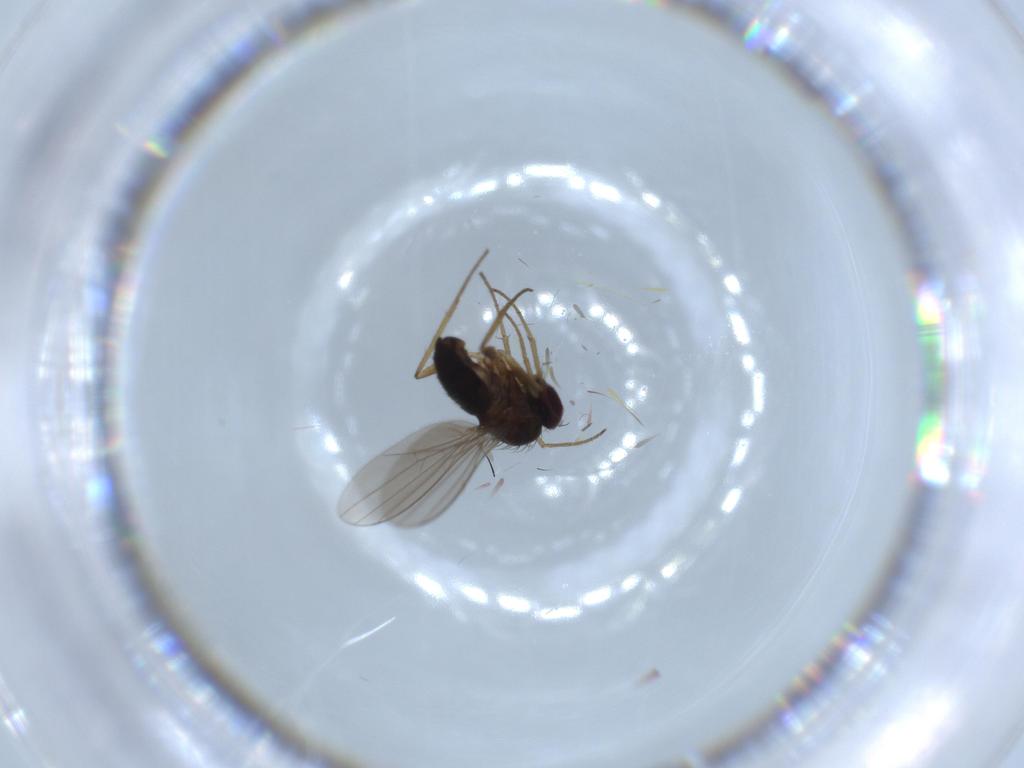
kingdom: Animalia
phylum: Arthropoda
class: Insecta
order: Diptera
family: Dolichopodidae
